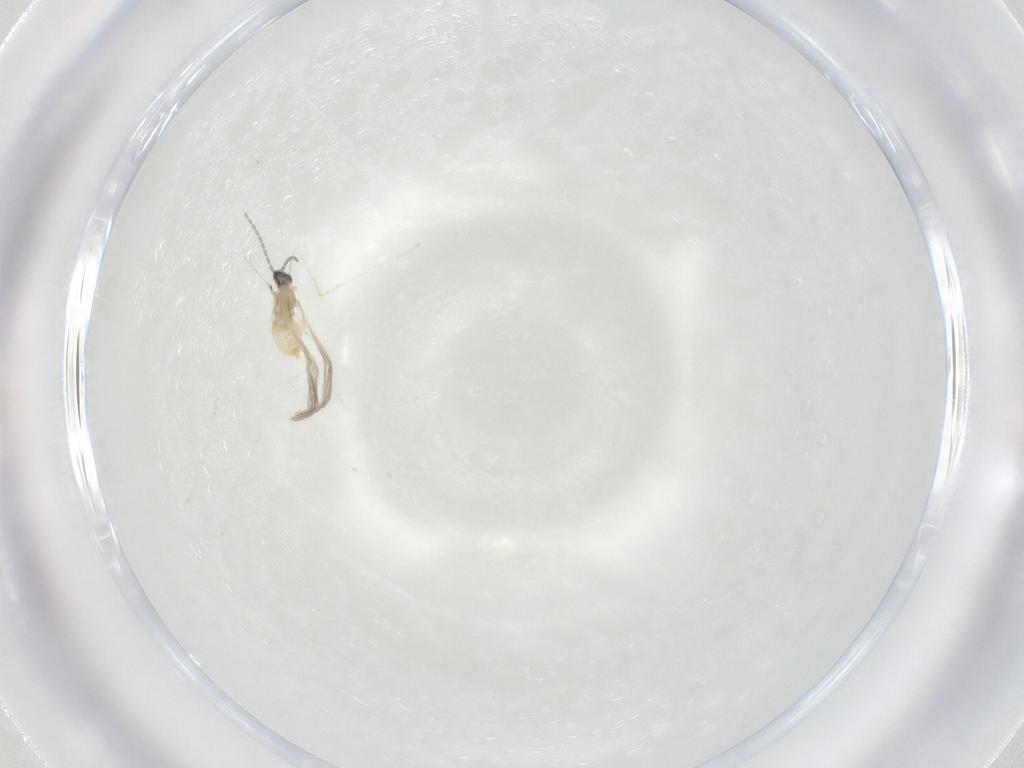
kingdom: Animalia
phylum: Arthropoda
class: Insecta
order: Diptera
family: Cecidomyiidae
